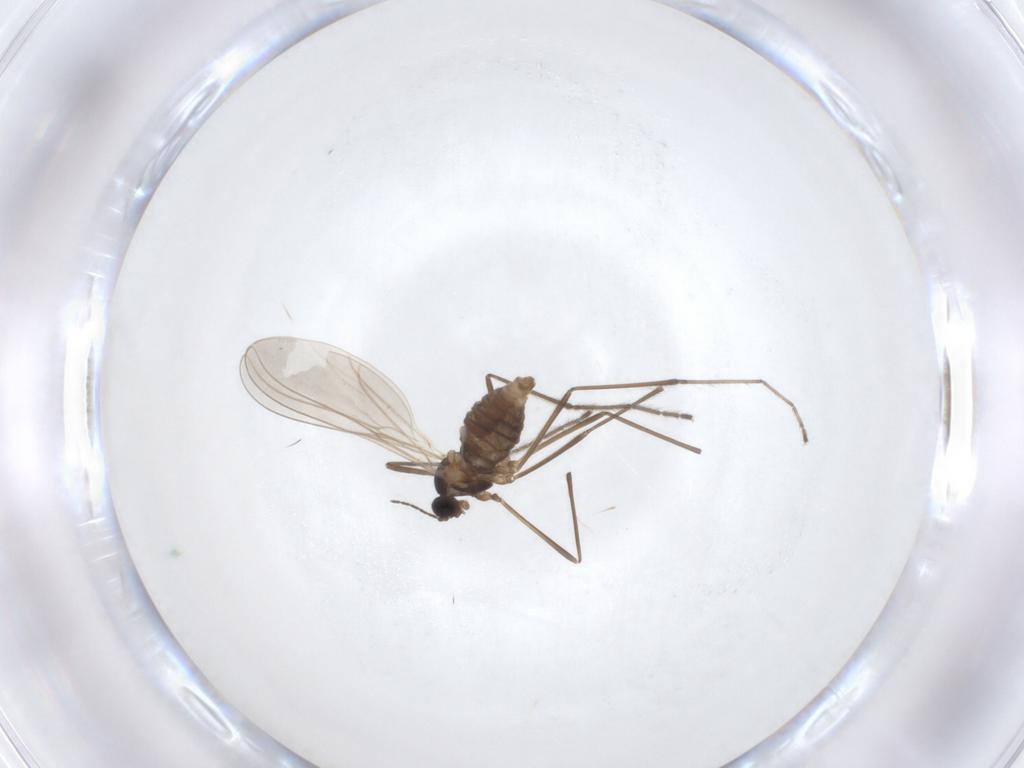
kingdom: Animalia
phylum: Arthropoda
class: Insecta
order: Diptera
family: Cecidomyiidae
